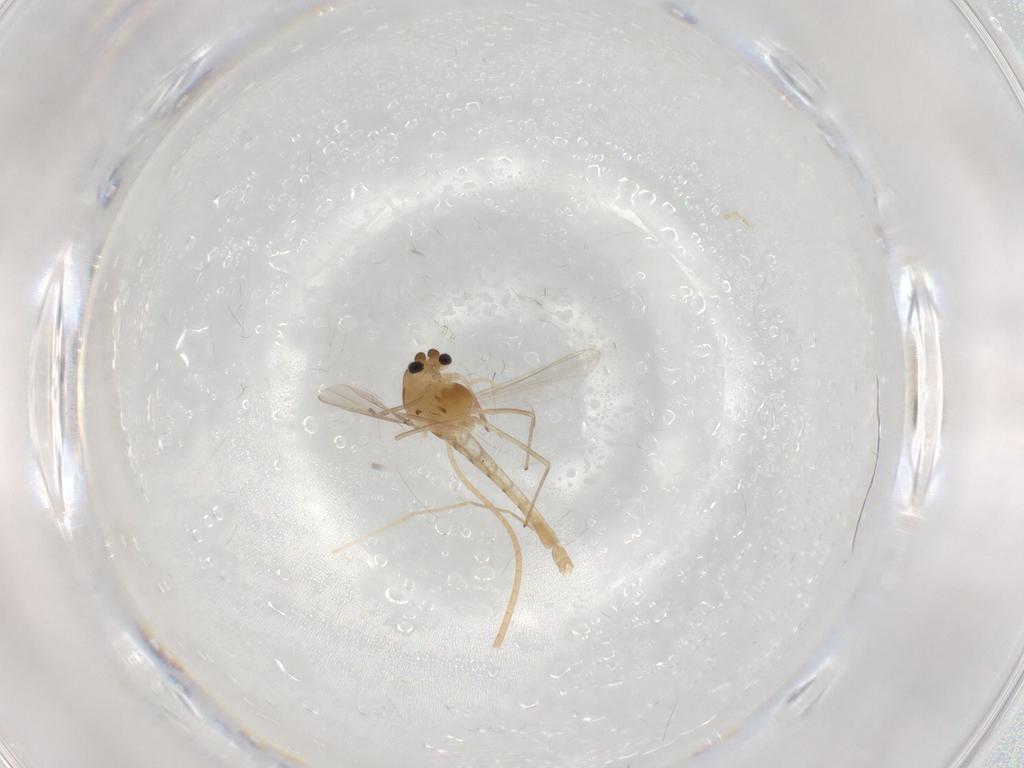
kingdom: Animalia
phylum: Arthropoda
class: Insecta
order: Diptera
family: Chironomidae
